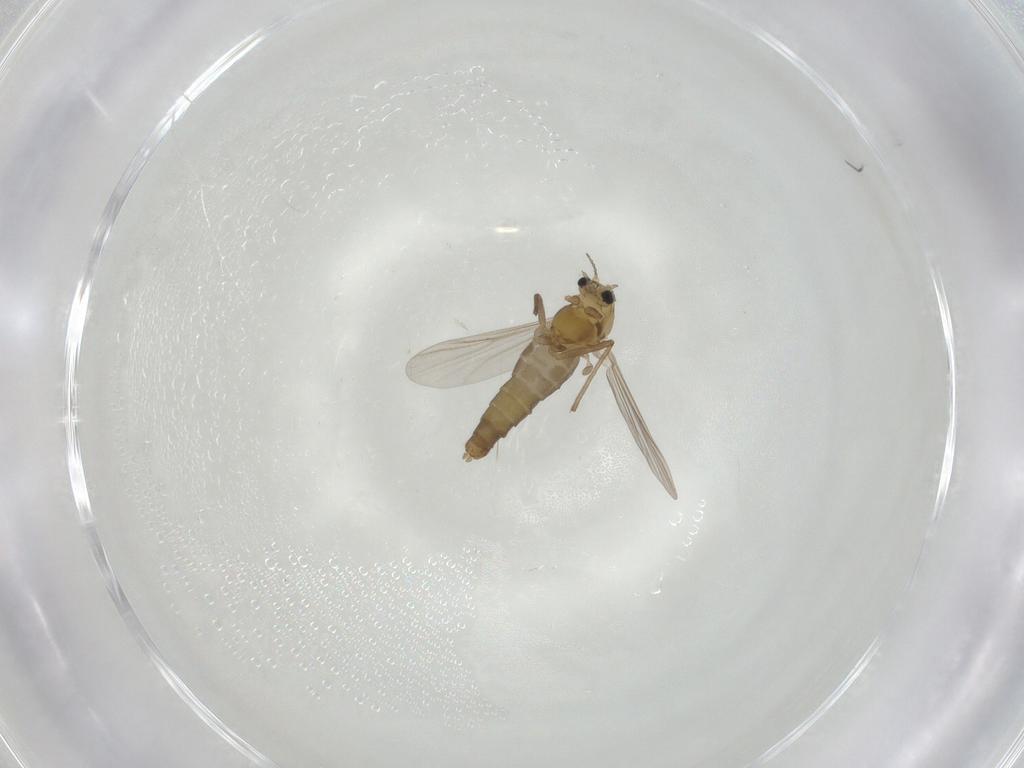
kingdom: Animalia
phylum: Arthropoda
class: Insecta
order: Diptera
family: Chironomidae
